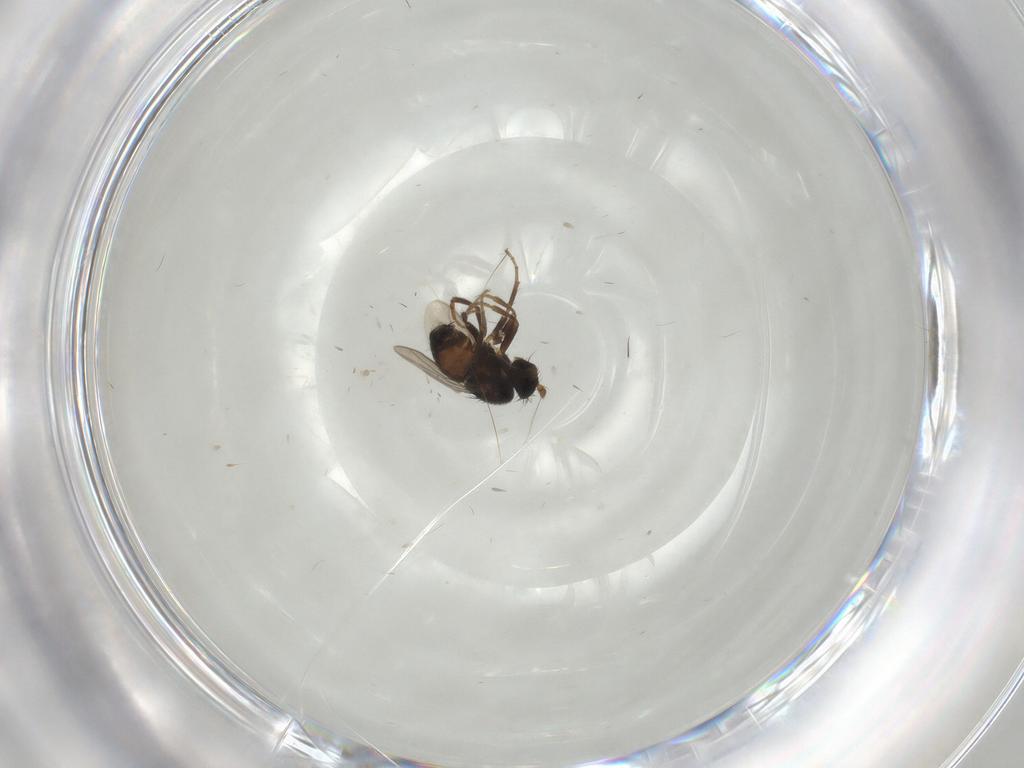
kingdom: Animalia
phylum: Arthropoda
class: Insecta
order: Diptera
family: Sphaeroceridae
